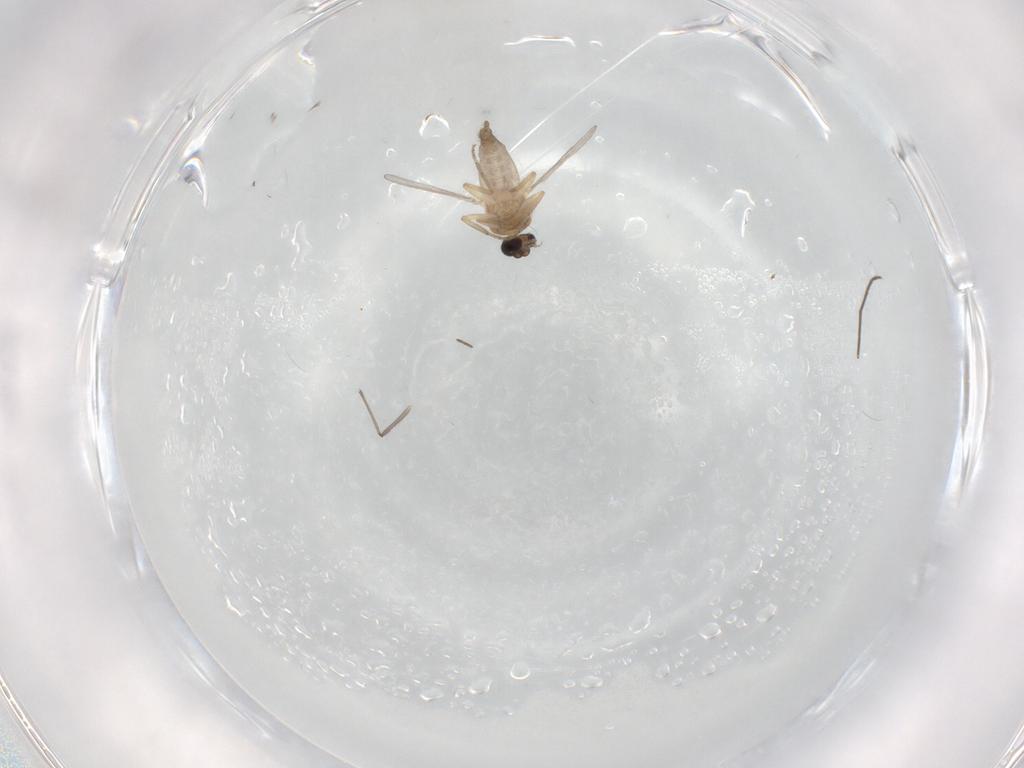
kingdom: Animalia
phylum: Arthropoda
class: Insecta
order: Diptera
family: Ceratopogonidae
